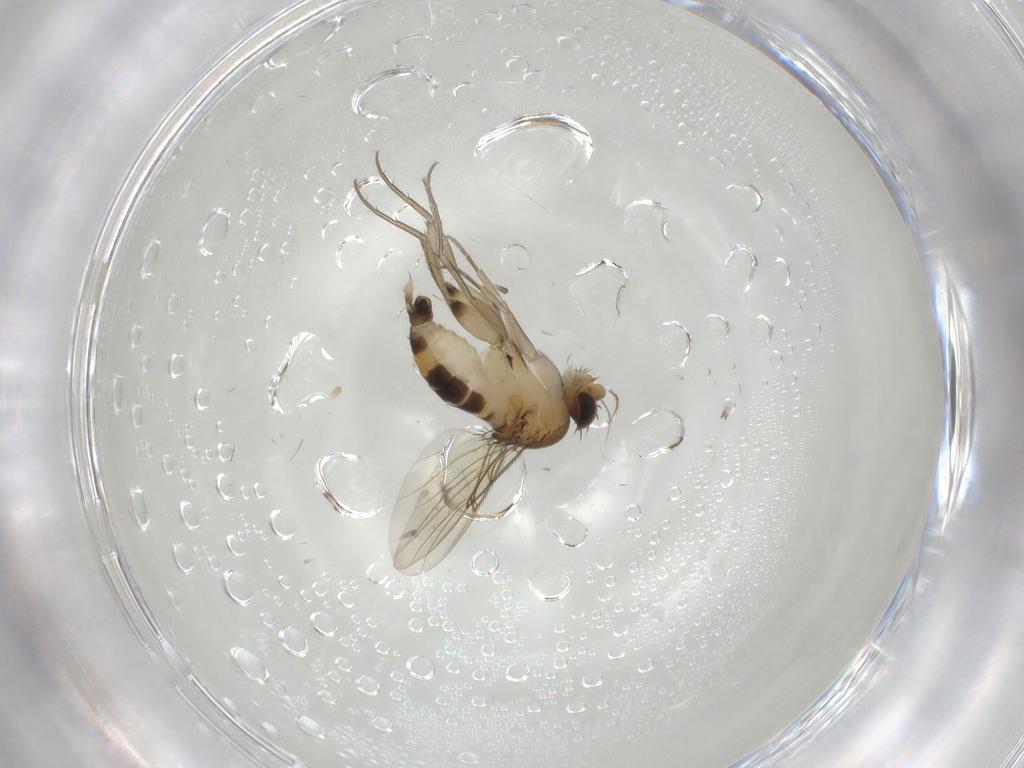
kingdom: Animalia
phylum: Arthropoda
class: Insecta
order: Diptera
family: Phoridae
